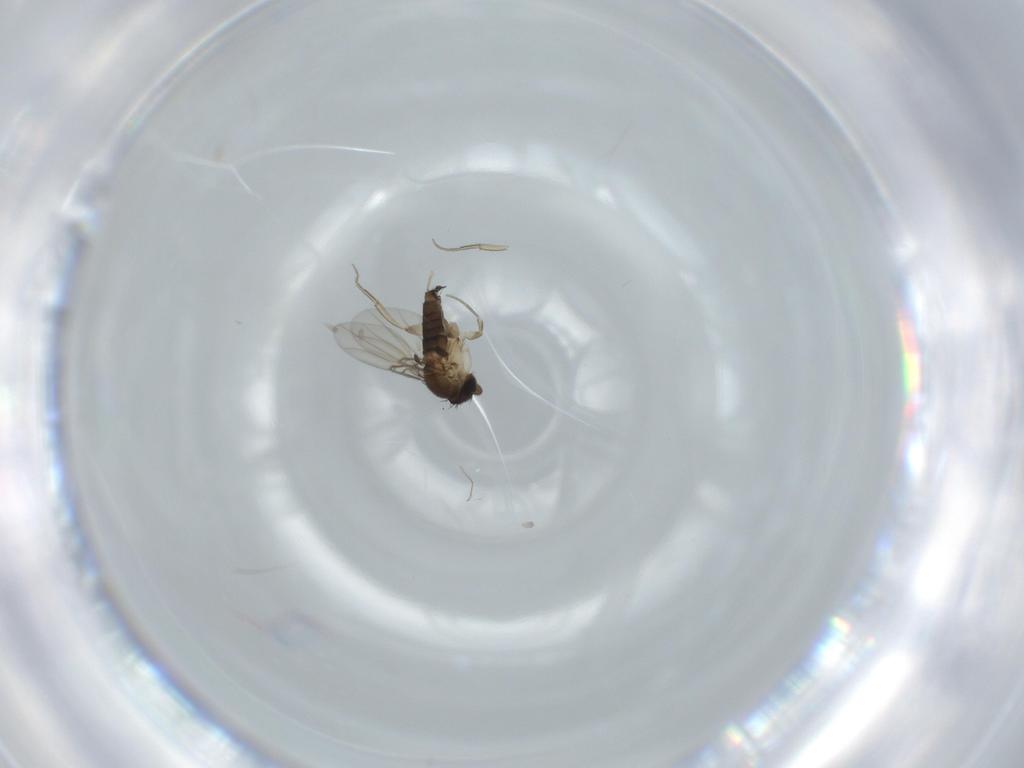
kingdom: Animalia
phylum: Arthropoda
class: Insecta
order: Diptera
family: Phoridae
